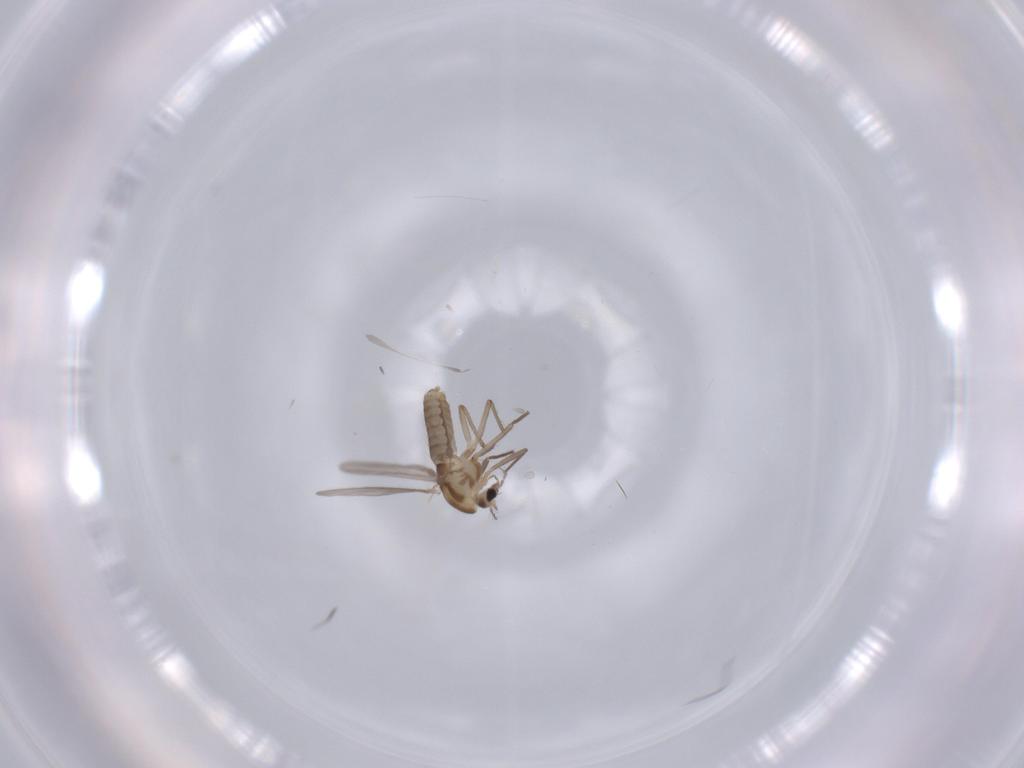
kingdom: Animalia
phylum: Arthropoda
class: Insecta
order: Diptera
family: Chironomidae
